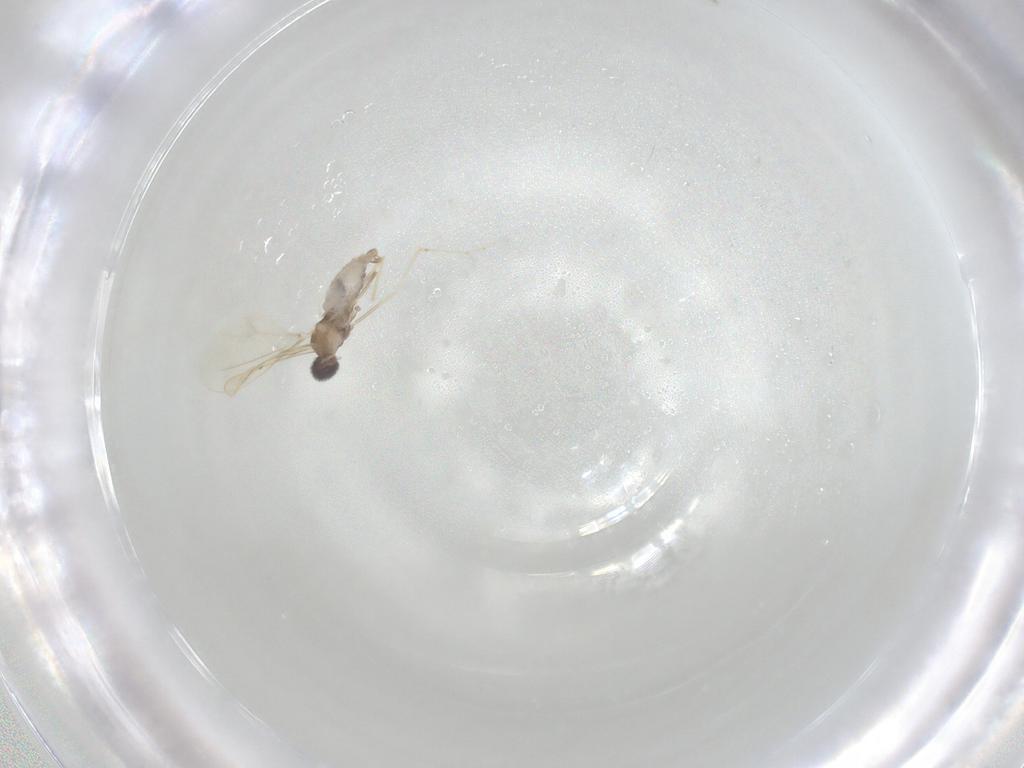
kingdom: Animalia
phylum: Arthropoda
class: Insecta
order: Diptera
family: Cecidomyiidae
